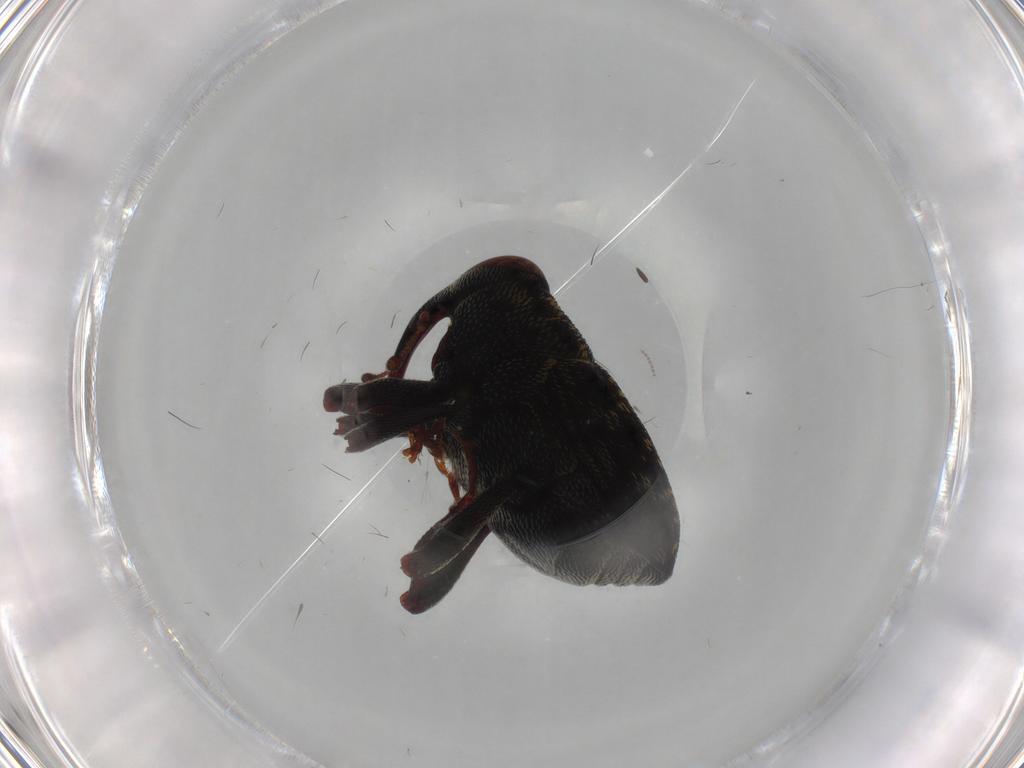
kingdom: Animalia
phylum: Arthropoda
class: Insecta
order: Coleoptera
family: Curculionidae
